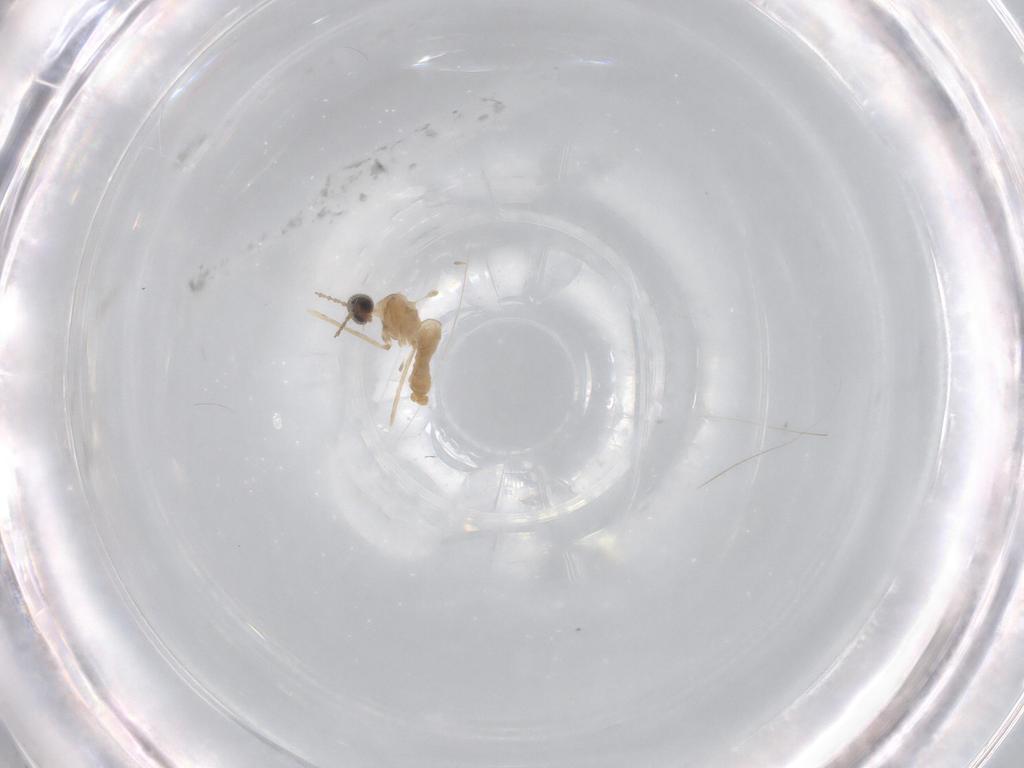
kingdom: Animalia
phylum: Arthropoda
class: Insecta
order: Diptera
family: Cecidomyiidae
